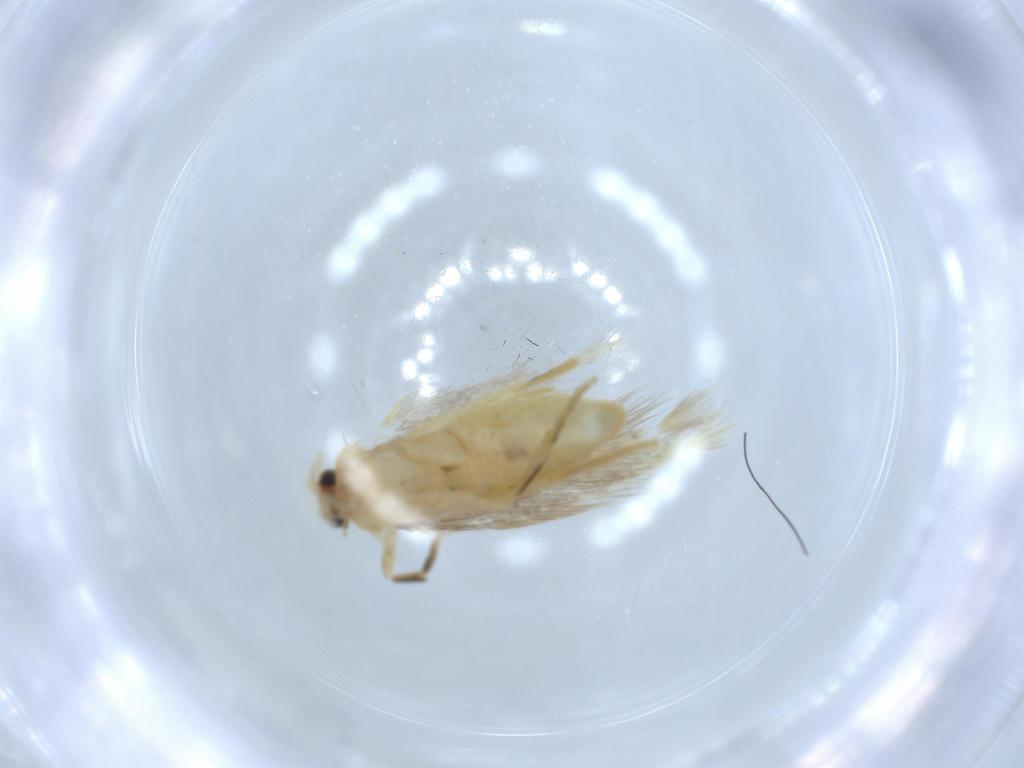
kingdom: Animalia
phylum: Arthropoda
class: Insecta
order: Lepidoptera
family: Nepticulidae
